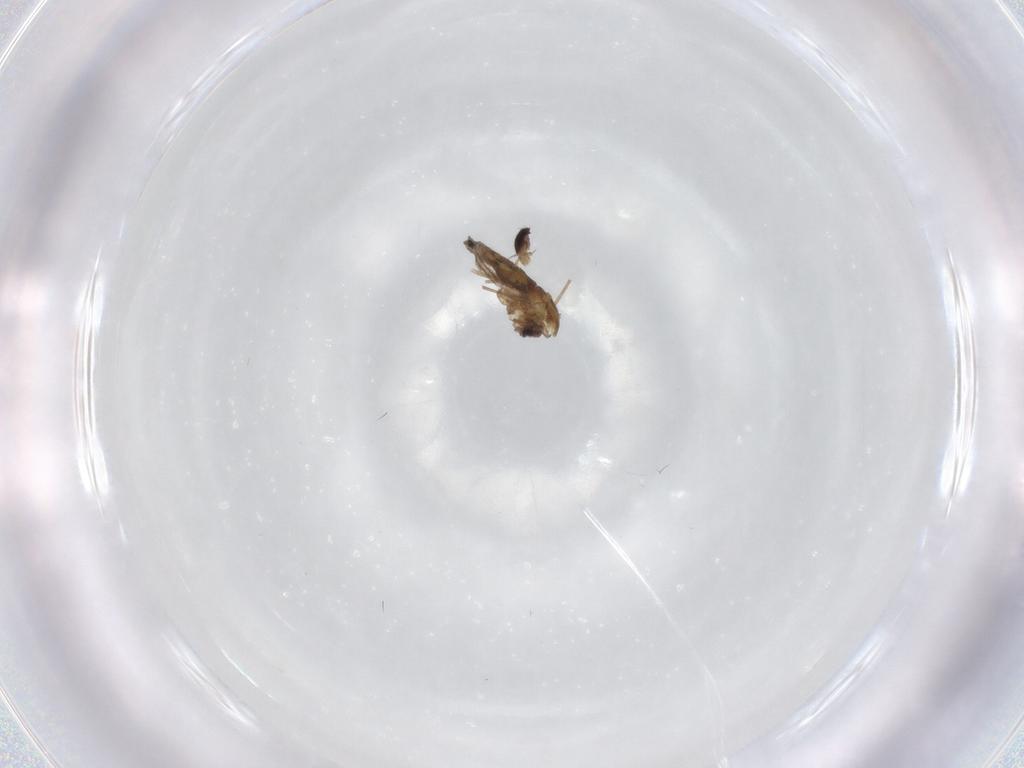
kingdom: Animalia
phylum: Arthropoda
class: Insecta
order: Diptera
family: Chironomidae
